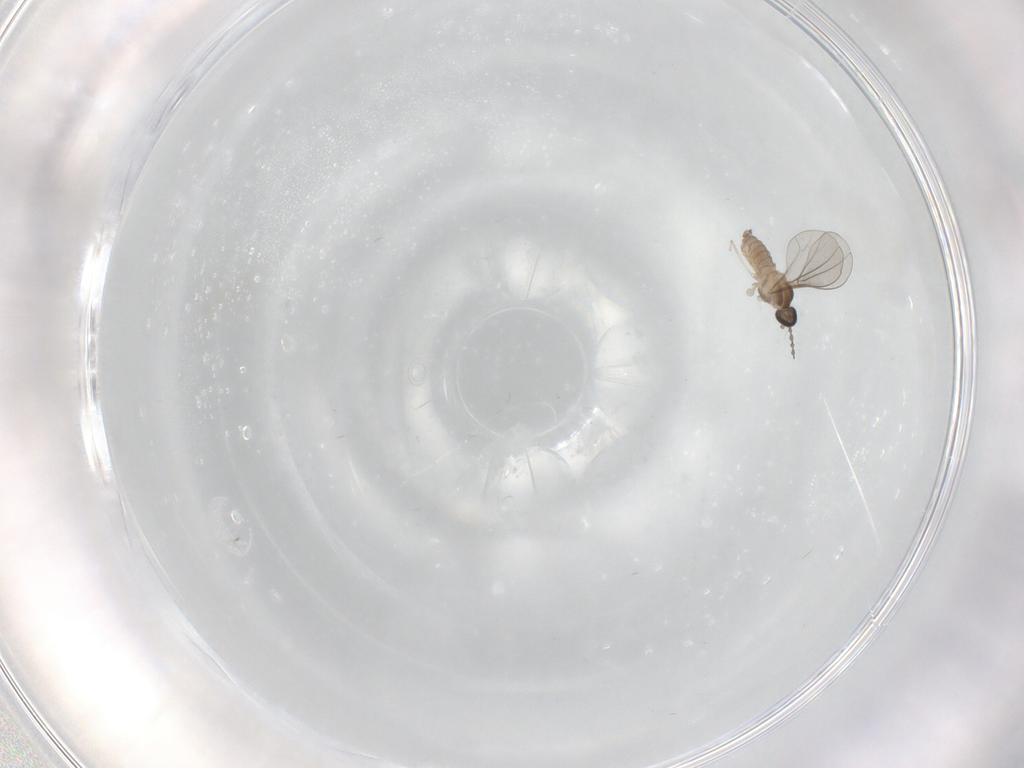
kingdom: Animalia
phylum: Arthropoda
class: Insecta
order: Diptera
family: Cecidomyiidae
